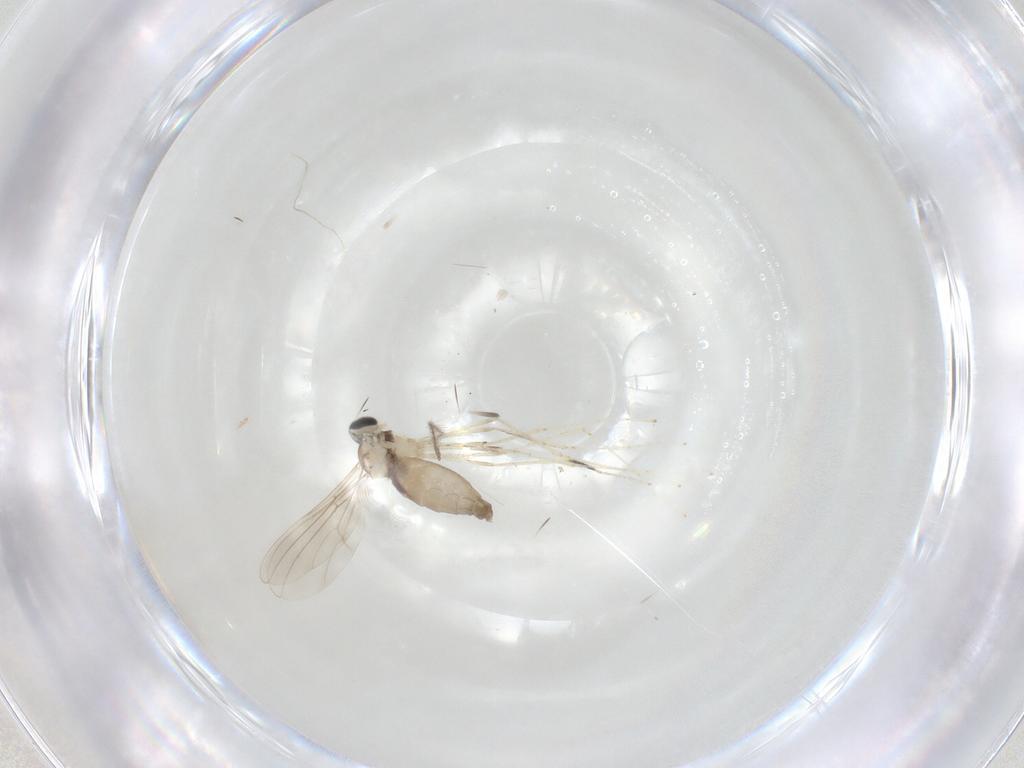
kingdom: Animalia
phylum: Arthropoda
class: Insecta
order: Diptera
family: Cecidomyiidae
